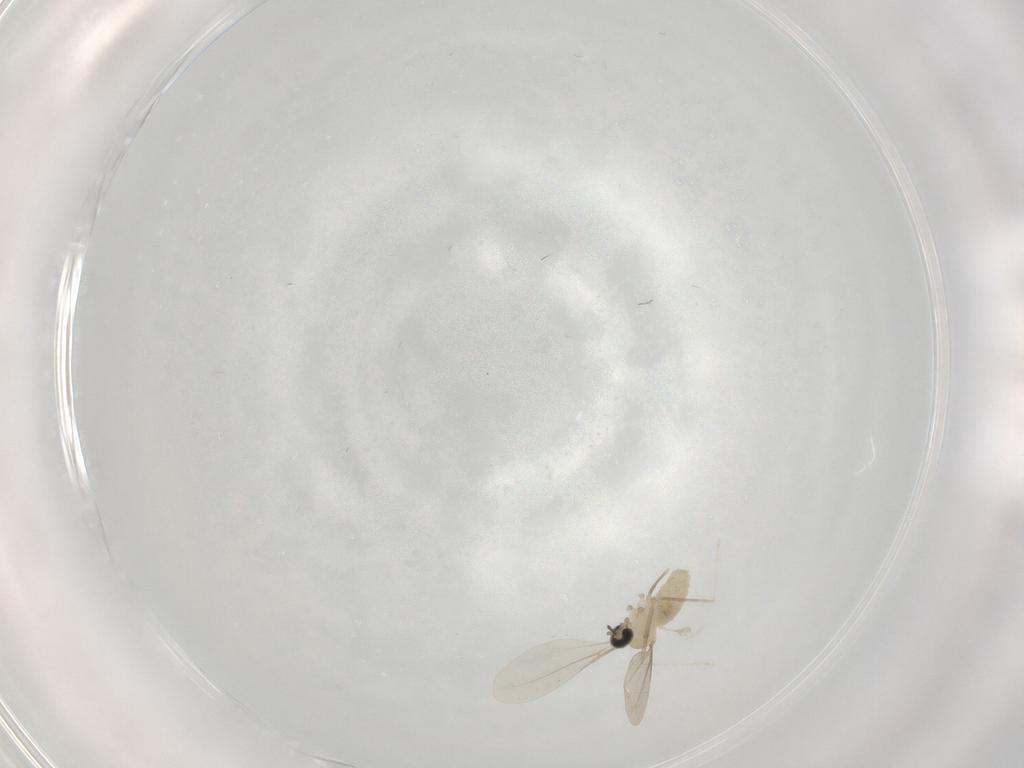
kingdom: Animalia
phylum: Arthropoda
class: Insecta
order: Diptera
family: Cecidomyiidae
